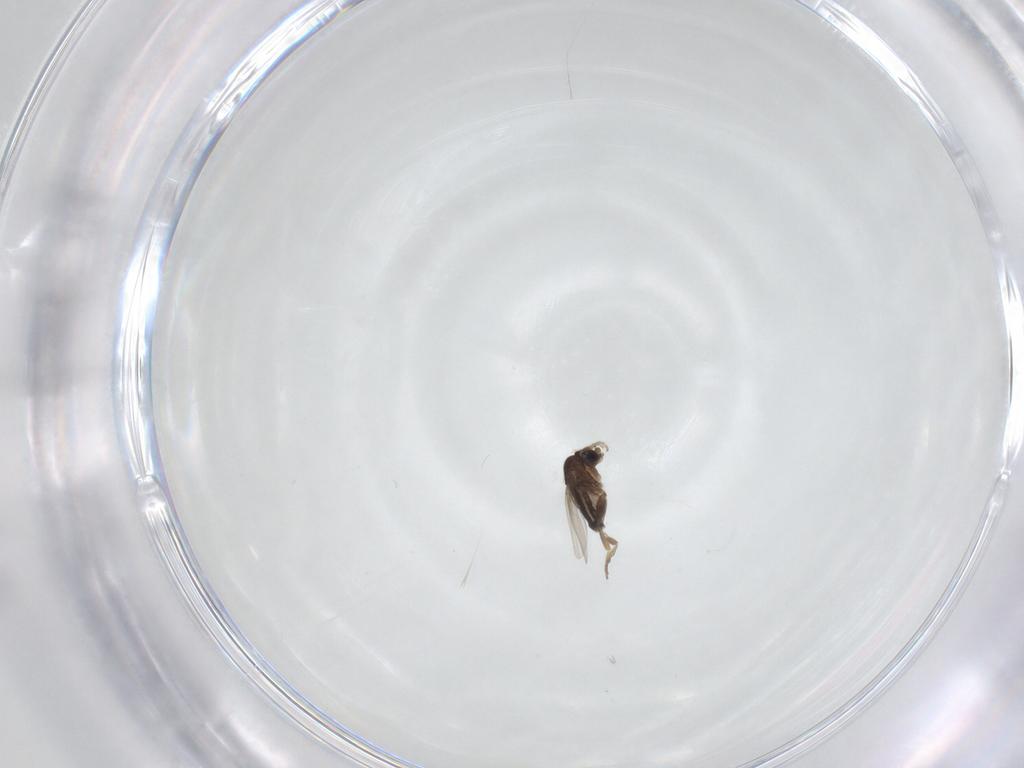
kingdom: Animalia
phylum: Arthropoda
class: Insecta
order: Diptera
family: Phoridae
